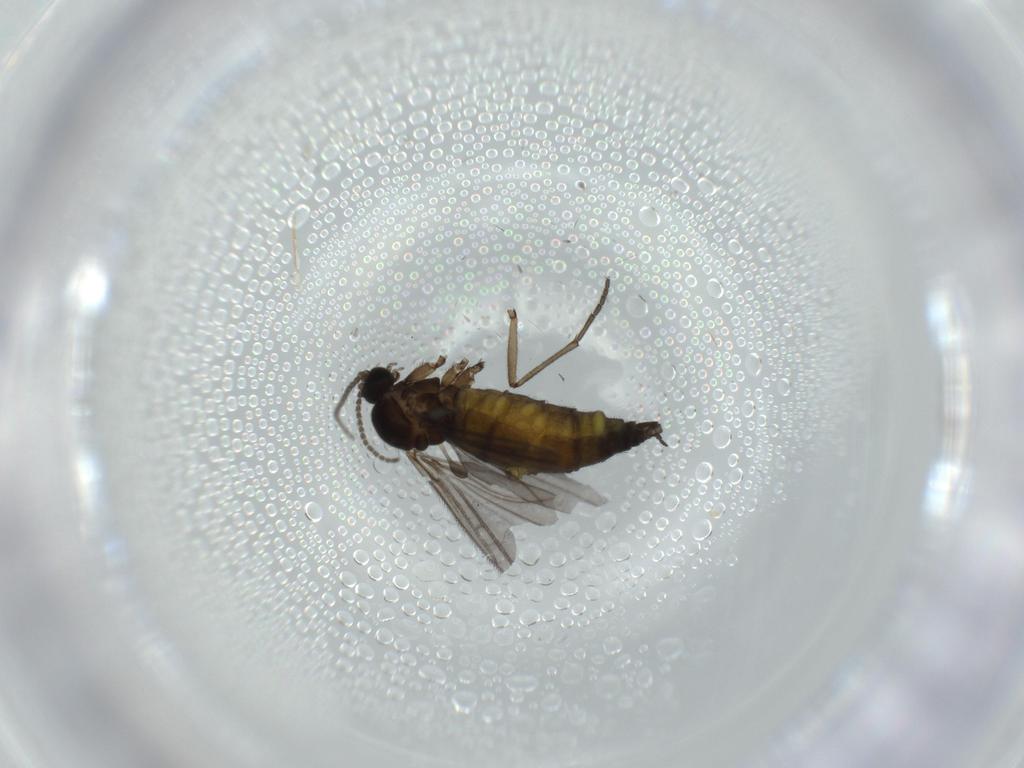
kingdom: Animalia
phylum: Arthropoda
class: Insecta
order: Diptera
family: Sciaridae
